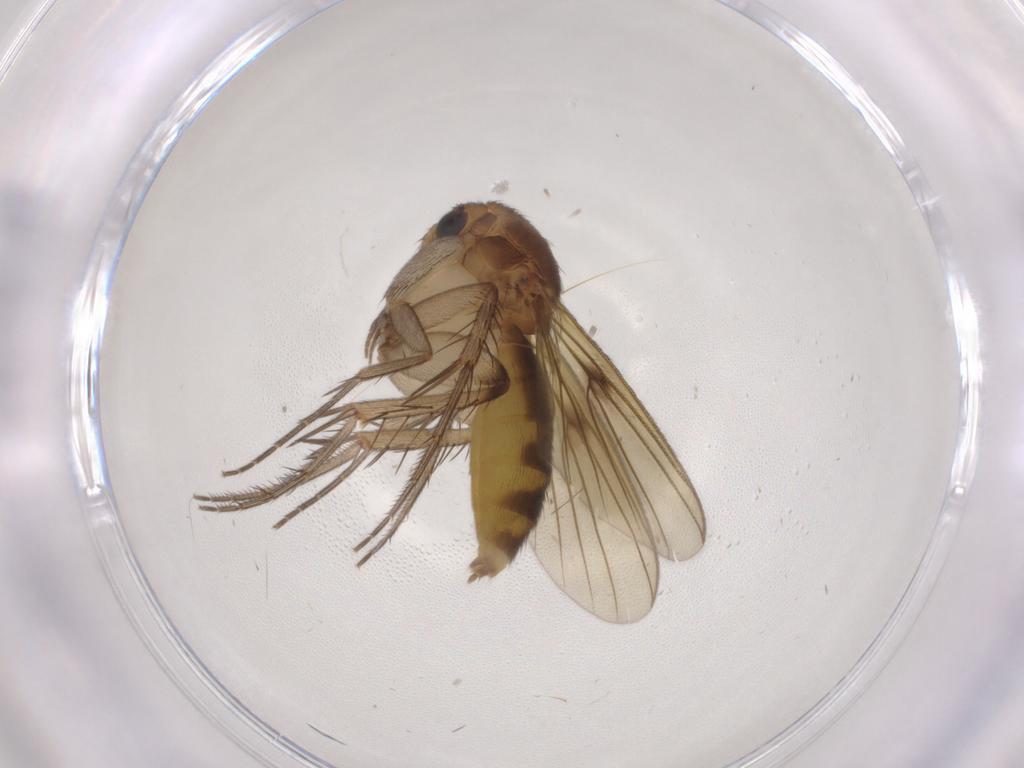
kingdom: Animalia
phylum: Arthropoda
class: Insecta
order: Diptera
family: Mycetophilidae
